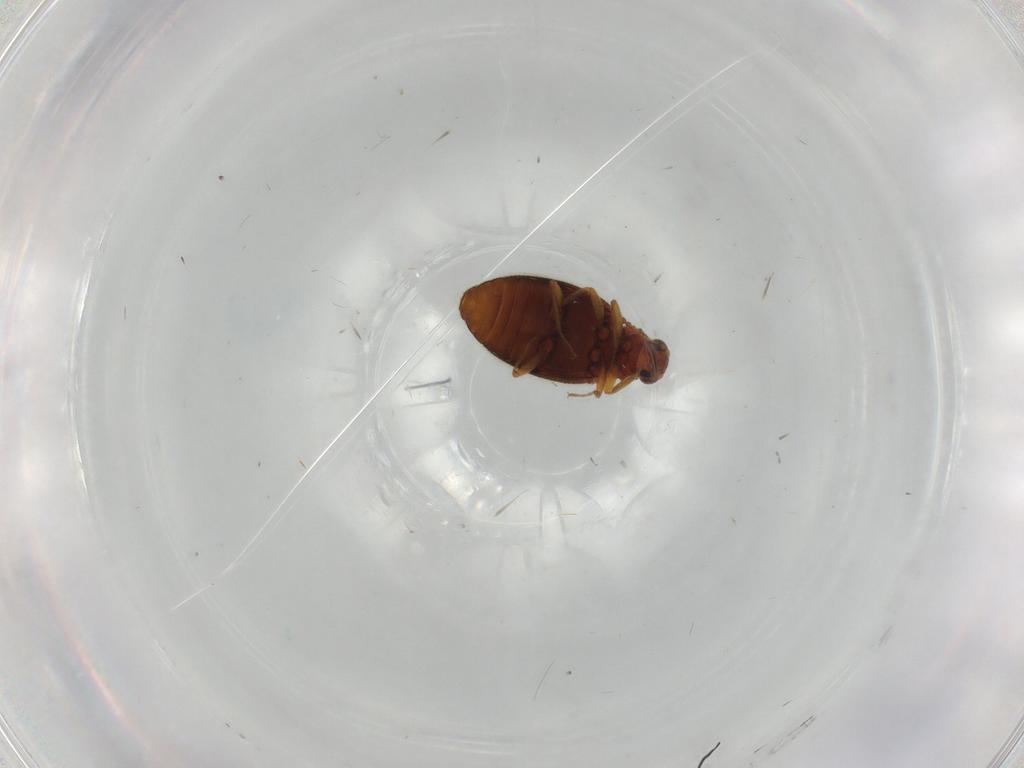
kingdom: Animalia
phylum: Arthropoda
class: Insecta
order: Coleoptera
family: Latridiidae
